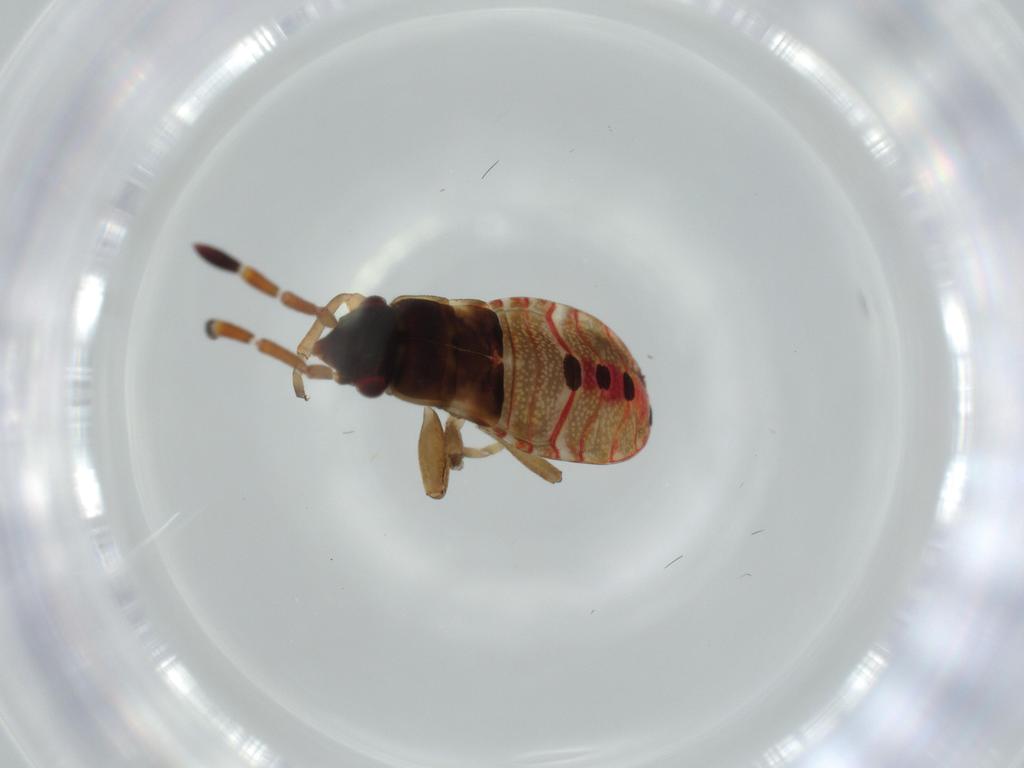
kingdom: Animalia
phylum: Arthropoda
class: Insecta
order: Hemiptera
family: Rhyparochromidae
